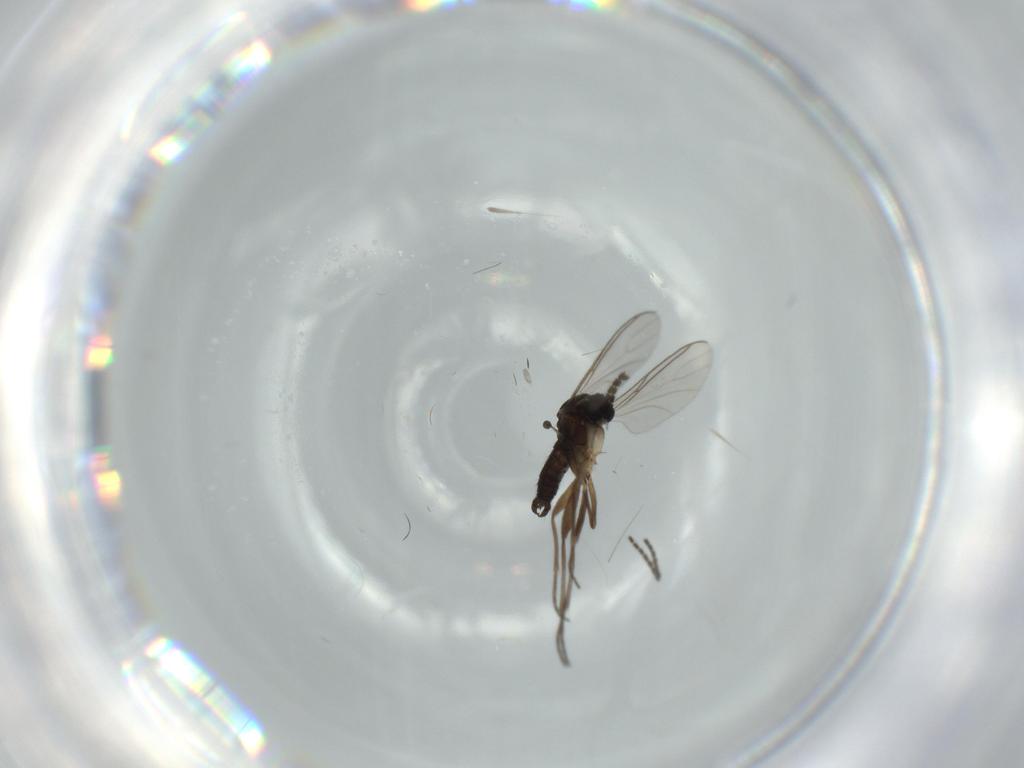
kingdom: Animalia
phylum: Arthropoda
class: Insecta
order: Diptera
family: Sciaridae
